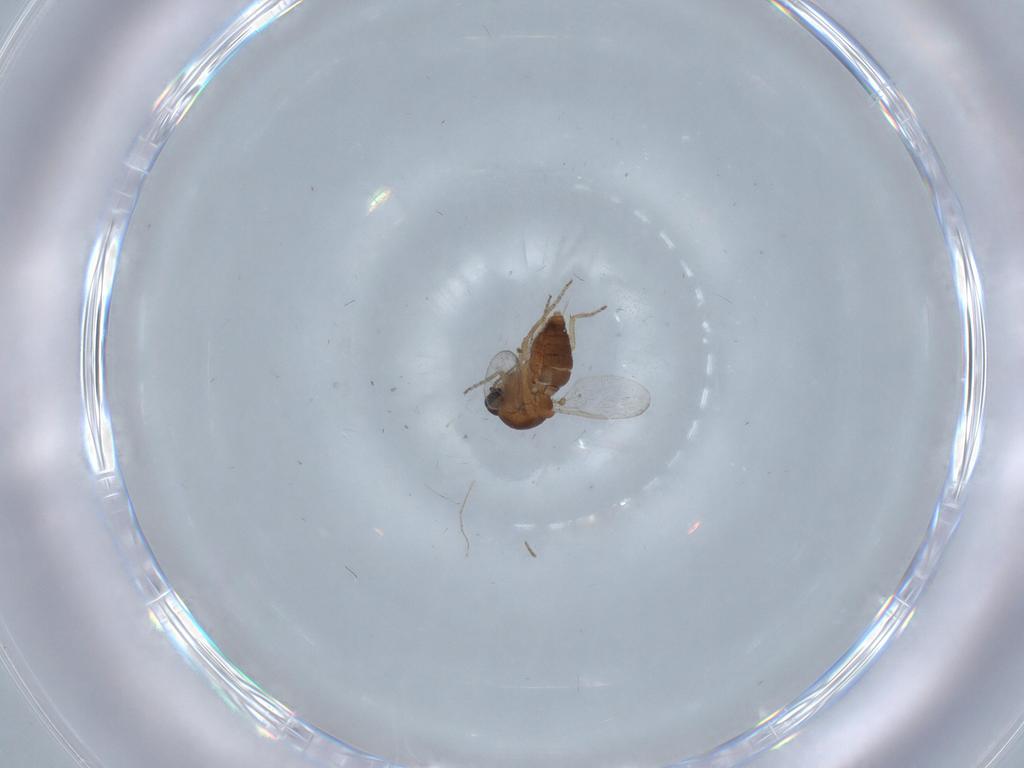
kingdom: Animalia
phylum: Arthropoda
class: Insecta
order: Diptera
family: Ceratopogonidae
